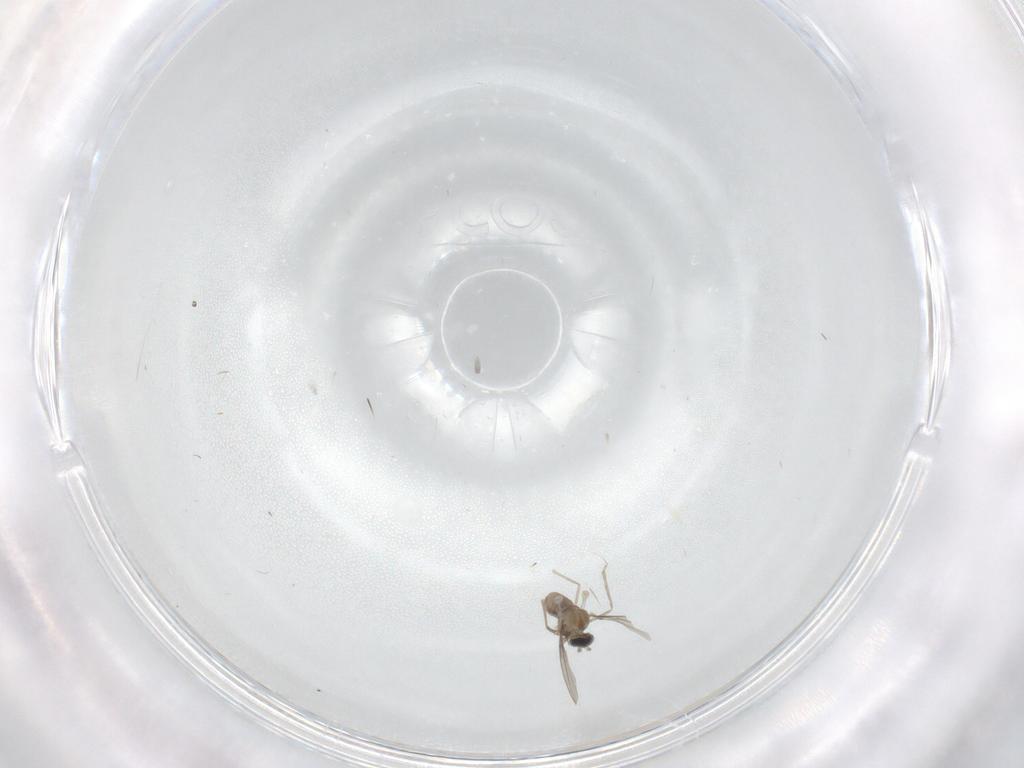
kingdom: Animalia
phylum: Arthropoda
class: Insecta
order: Diptera
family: Cecidomyiidae
